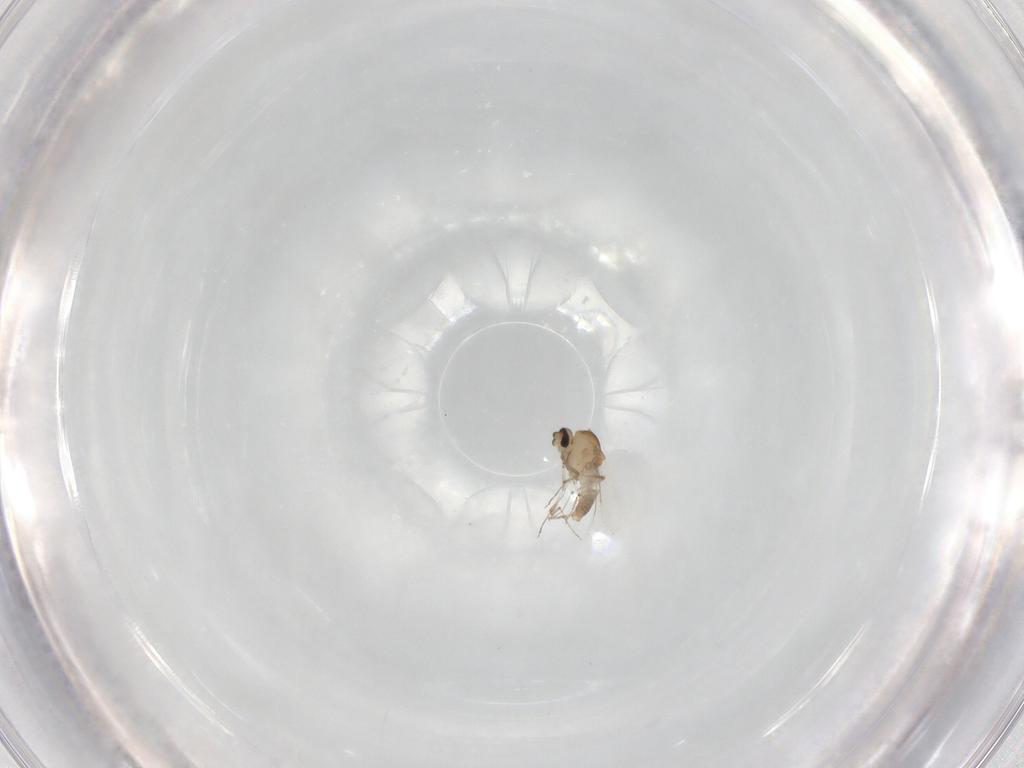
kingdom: Animalia
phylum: Arthropoda
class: Insecta
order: Diptera
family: Ceratopogonidae
